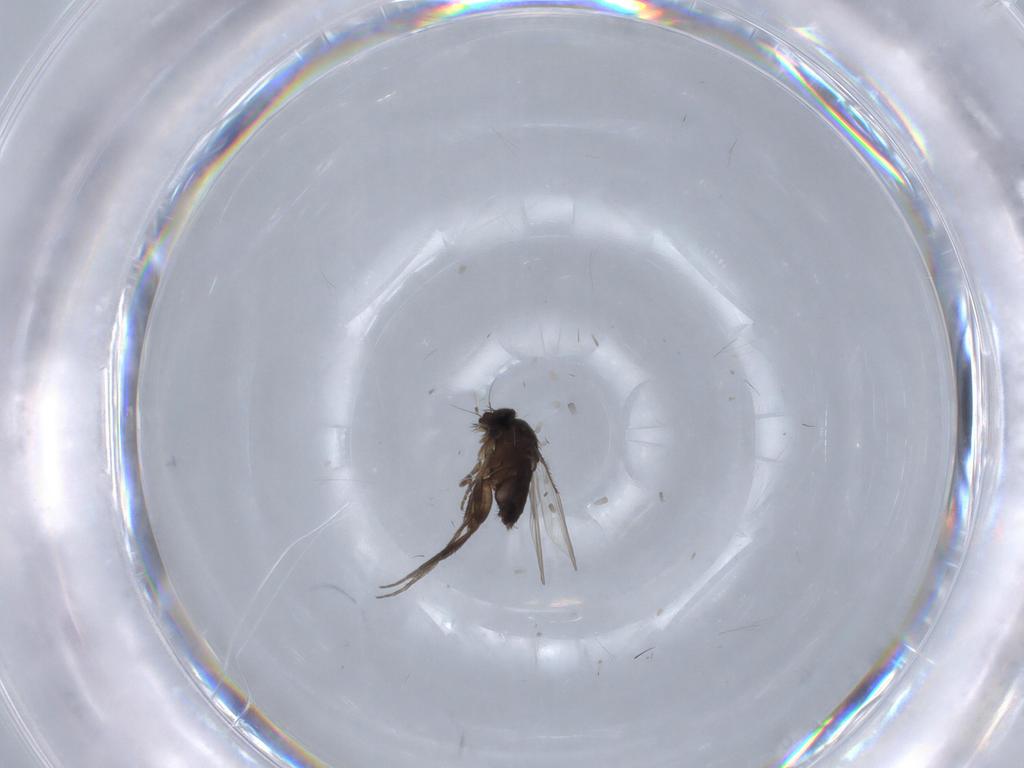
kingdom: Animalia
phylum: Arthropoda
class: Insecta
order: Diptera
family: Phoridae
